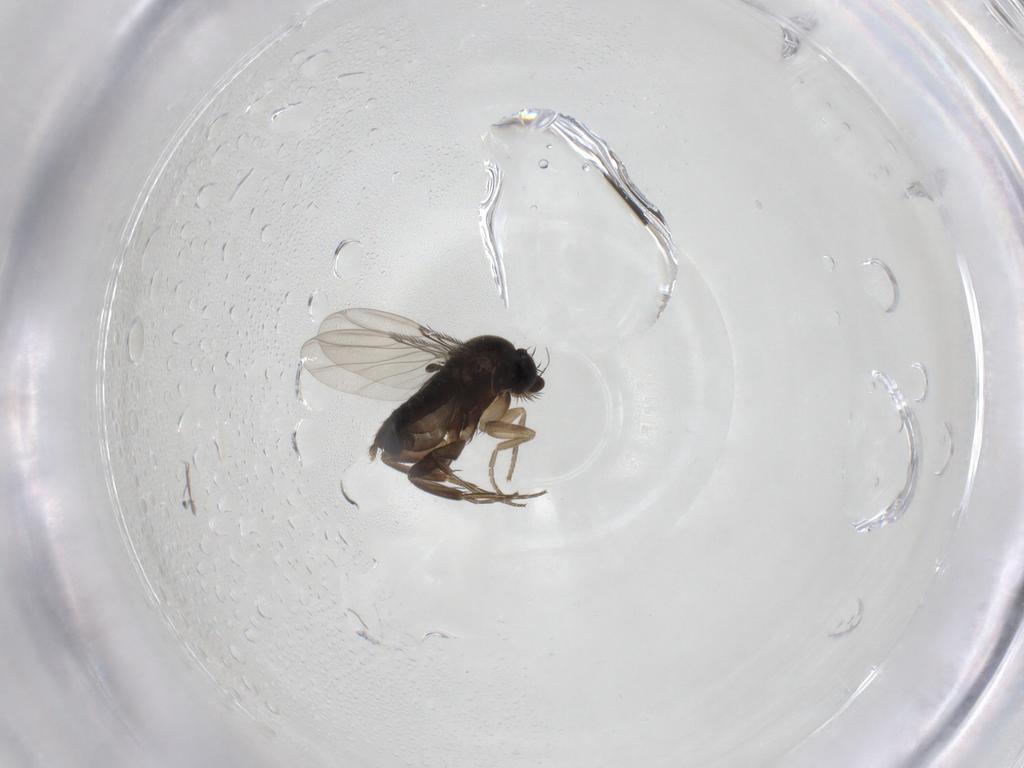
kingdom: Animalia
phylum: Arthropoda
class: Insecta
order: Diptera
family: Phoridae
